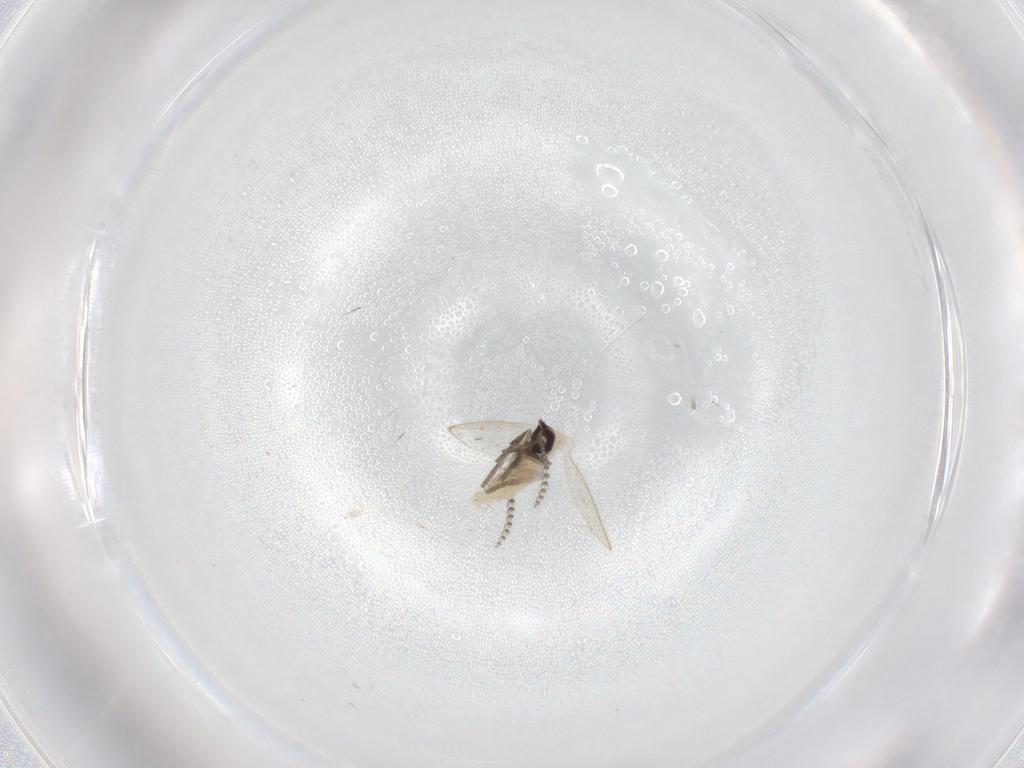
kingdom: Animalia
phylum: Arthropoda
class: Insecta
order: Diptera
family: Psychodidae
